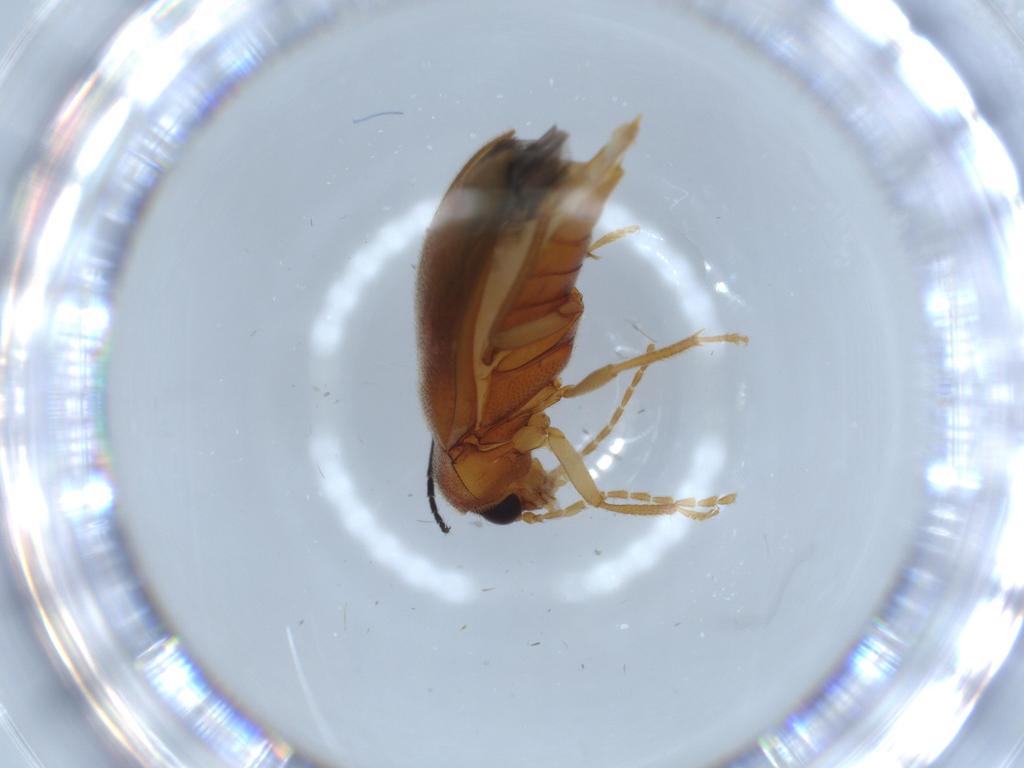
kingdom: Animalia
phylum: Arthropoda
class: Insecta
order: Coleoptera
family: Ptilodactylidae
